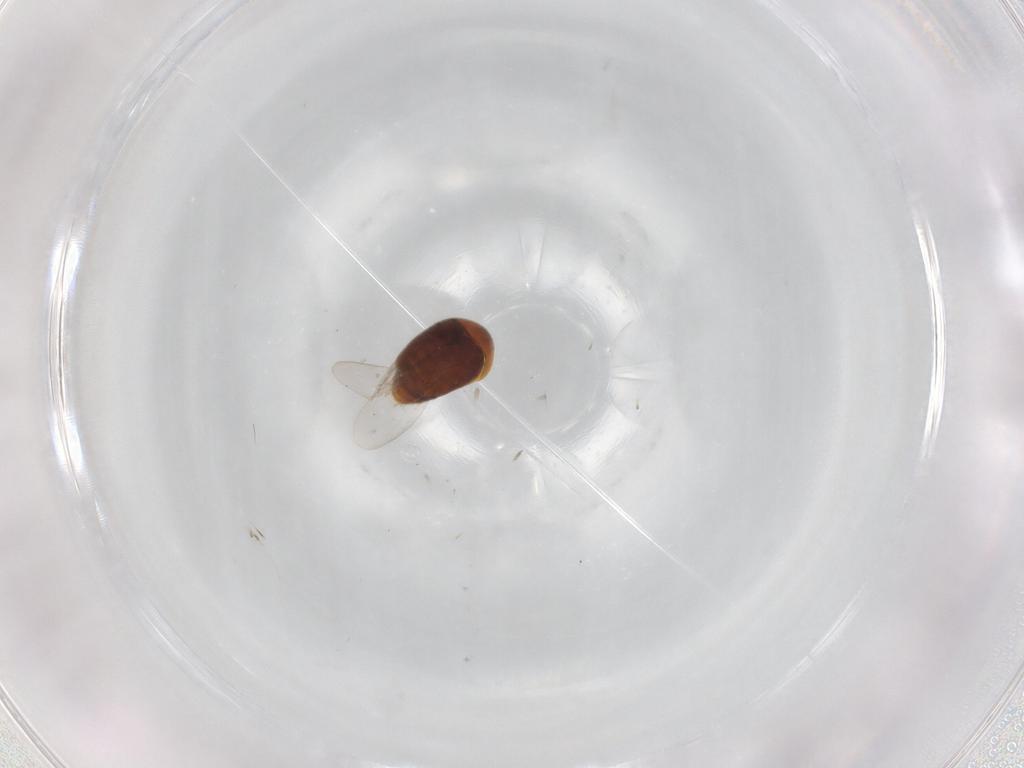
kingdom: Animalia
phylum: Arthropoda
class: Insecta
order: Coleoptera
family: Corylophidae
